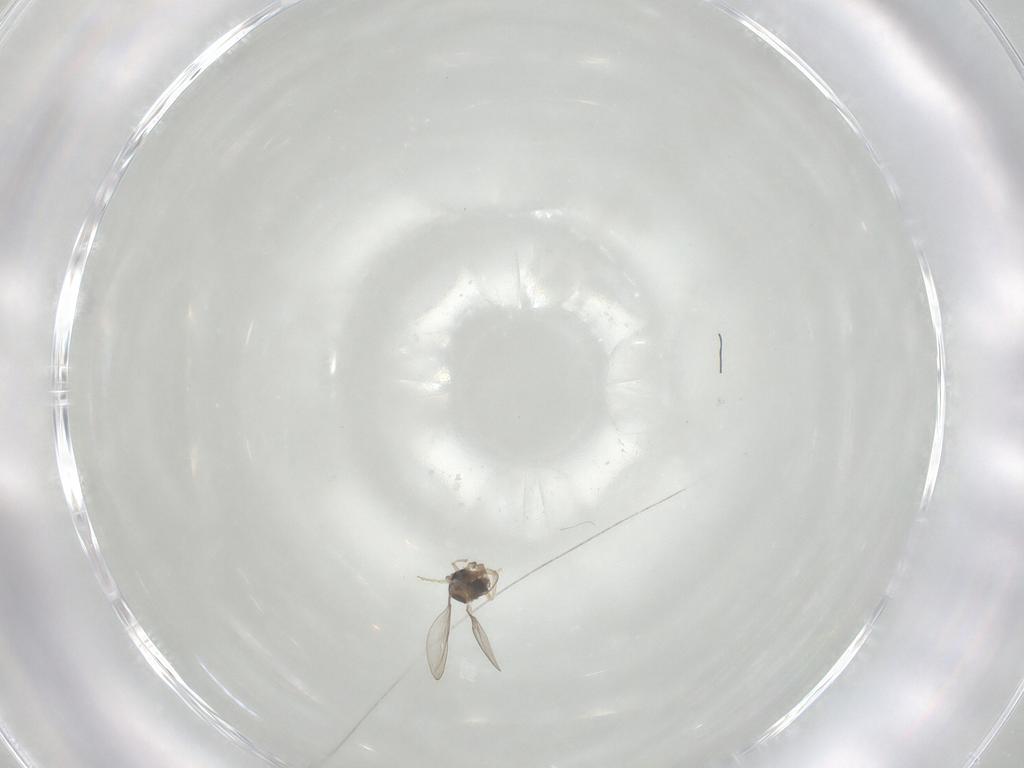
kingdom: Animalia
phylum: Arthropoda
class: Insecta
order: Diptera
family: Cecidomyiidae
